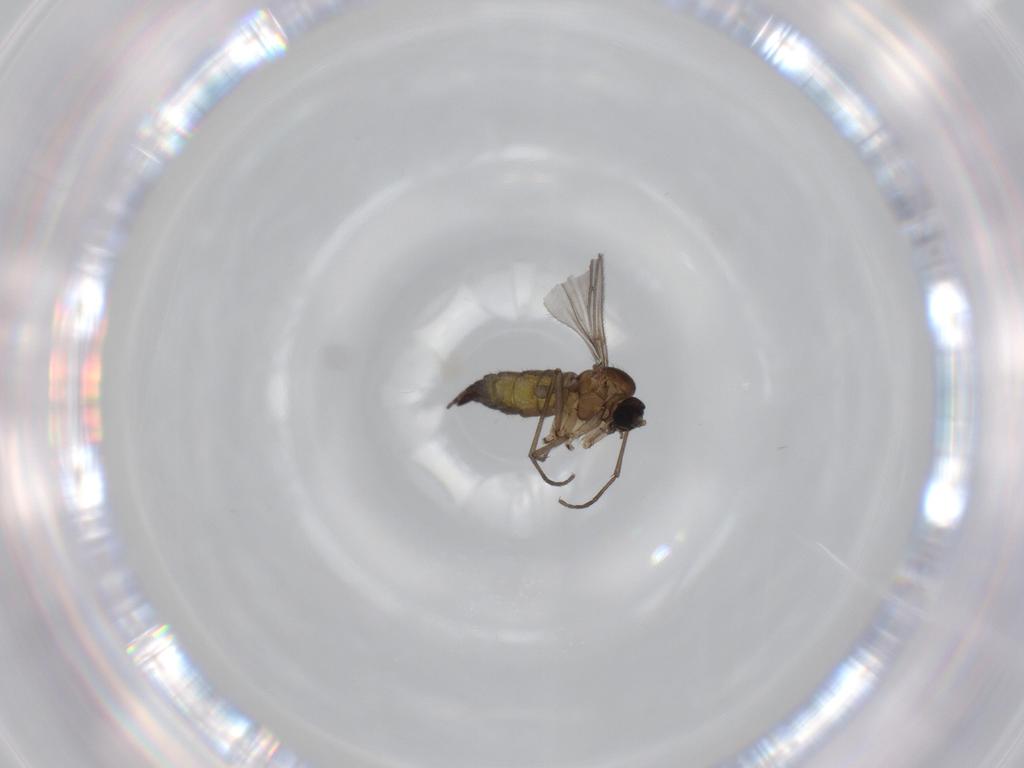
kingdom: Animalia
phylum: Arthropoda
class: Insecta
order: Diptera
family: Sciaridae
